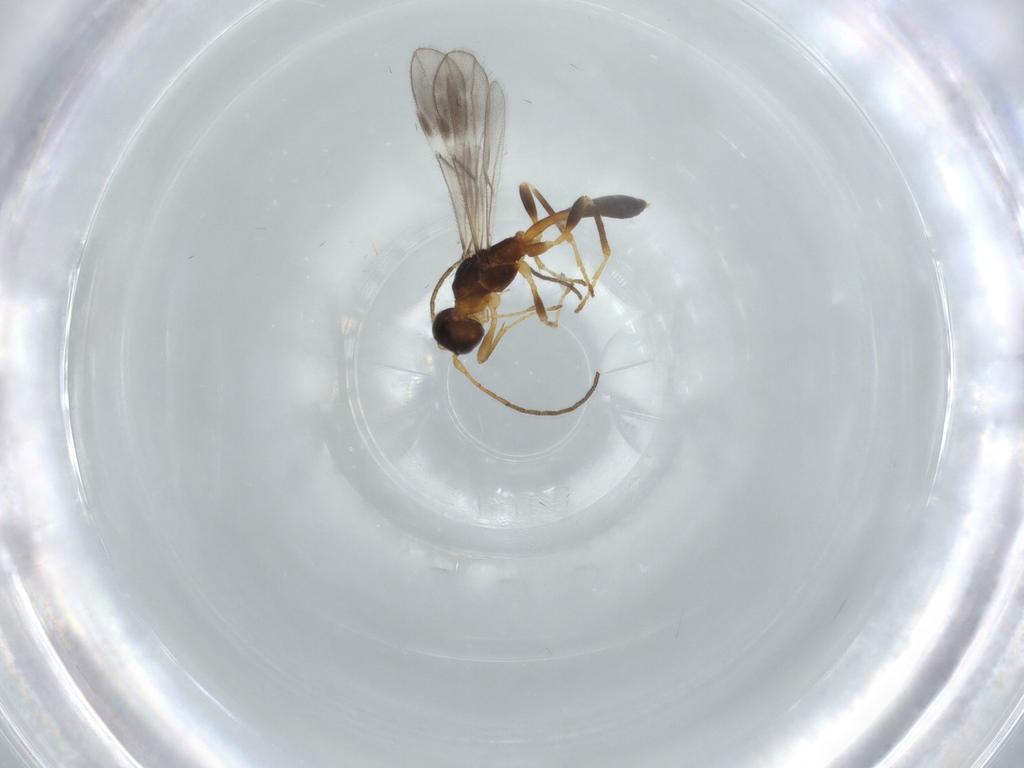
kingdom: Animalia
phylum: Arthropoda
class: Insecta
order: Hymenoptera
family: Braconidae
